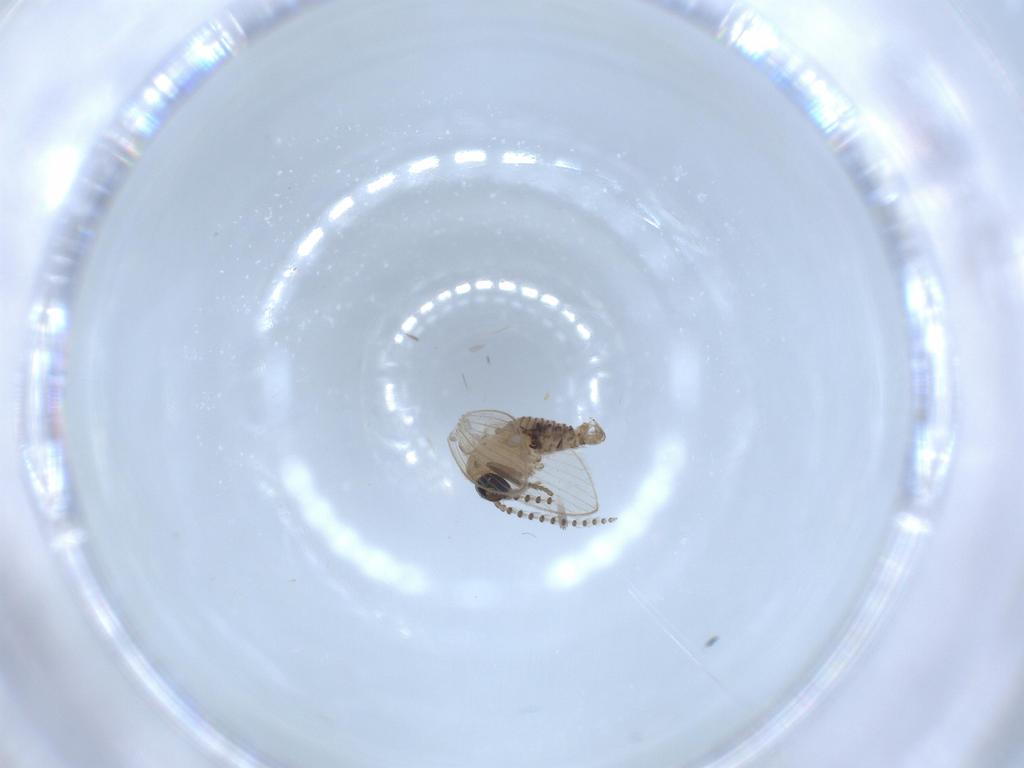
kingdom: Animalia
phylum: Arthropoda
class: Insecta
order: Diptera
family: Psychodidae
